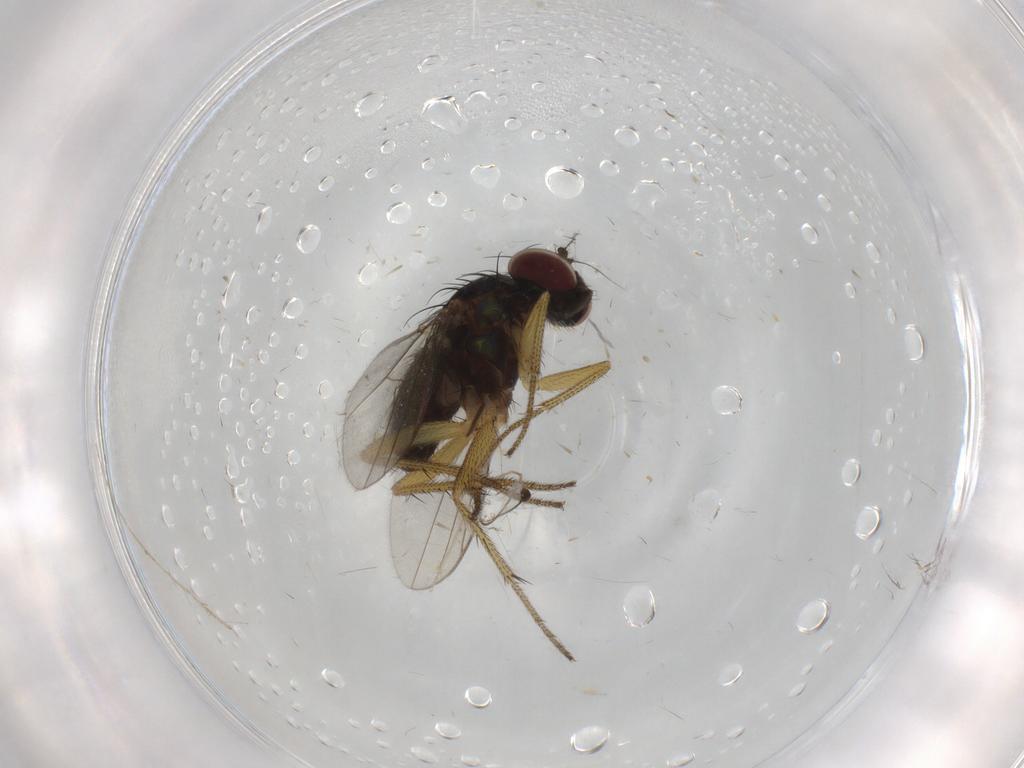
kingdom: Animalia
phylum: Arthropoda
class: Insecta
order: Diptera
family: Chironomidae
